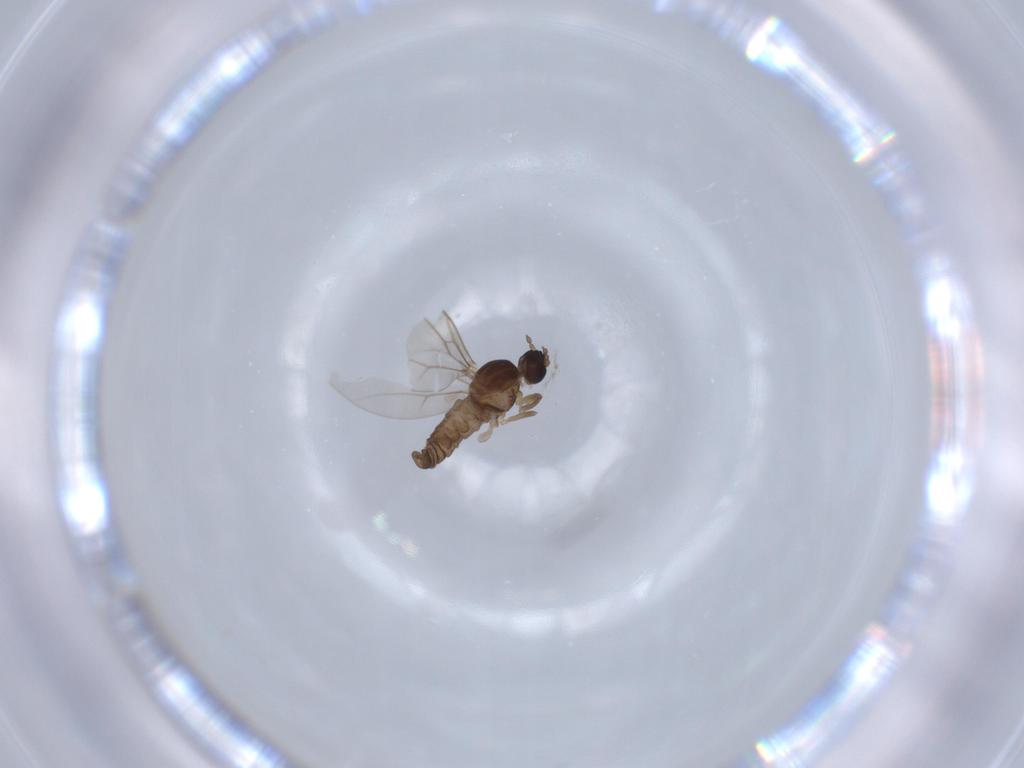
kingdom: Animalia
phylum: Arthropoda
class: Insecta
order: Diptera
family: Cecidomyiidae
